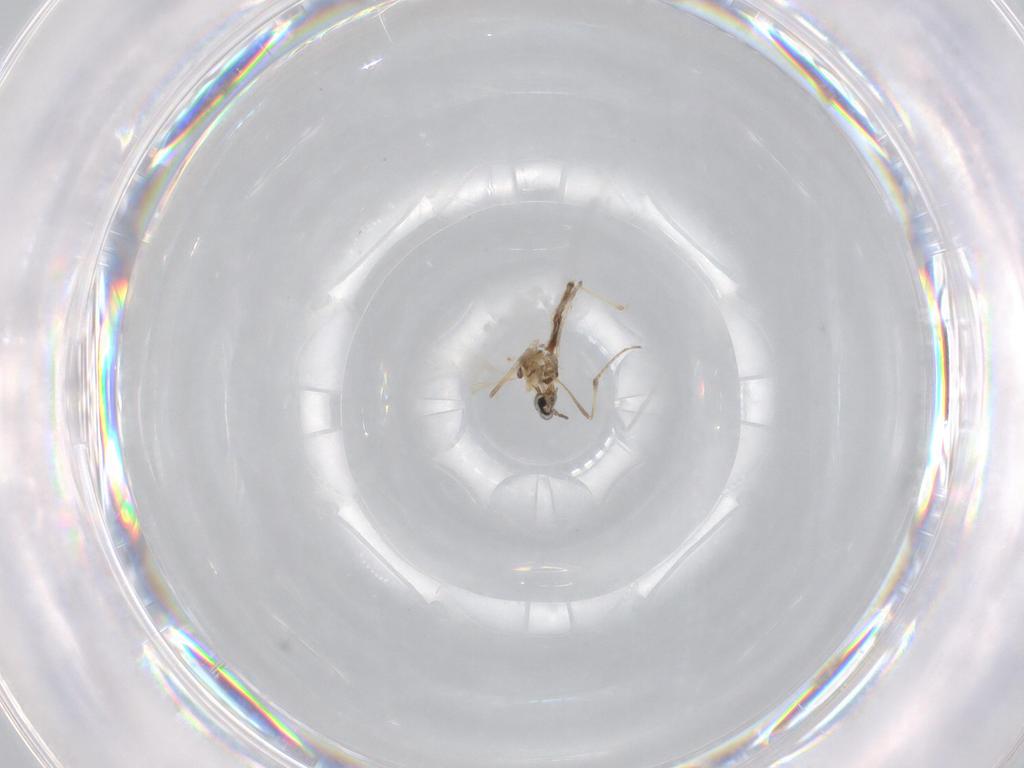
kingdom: Animalia
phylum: Arthropoda
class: Insecta
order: Diptera
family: Cecidomyiidae
